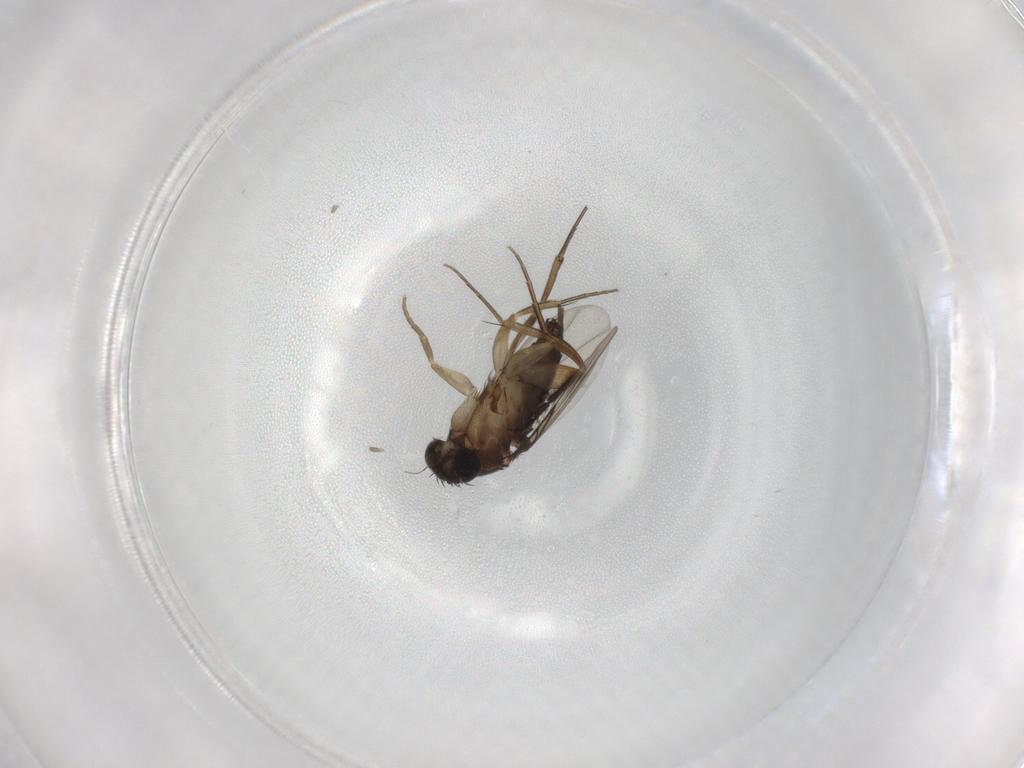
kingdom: Animalia
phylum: Arthropoda
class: Insecta
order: Diptera
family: Limoniidae
